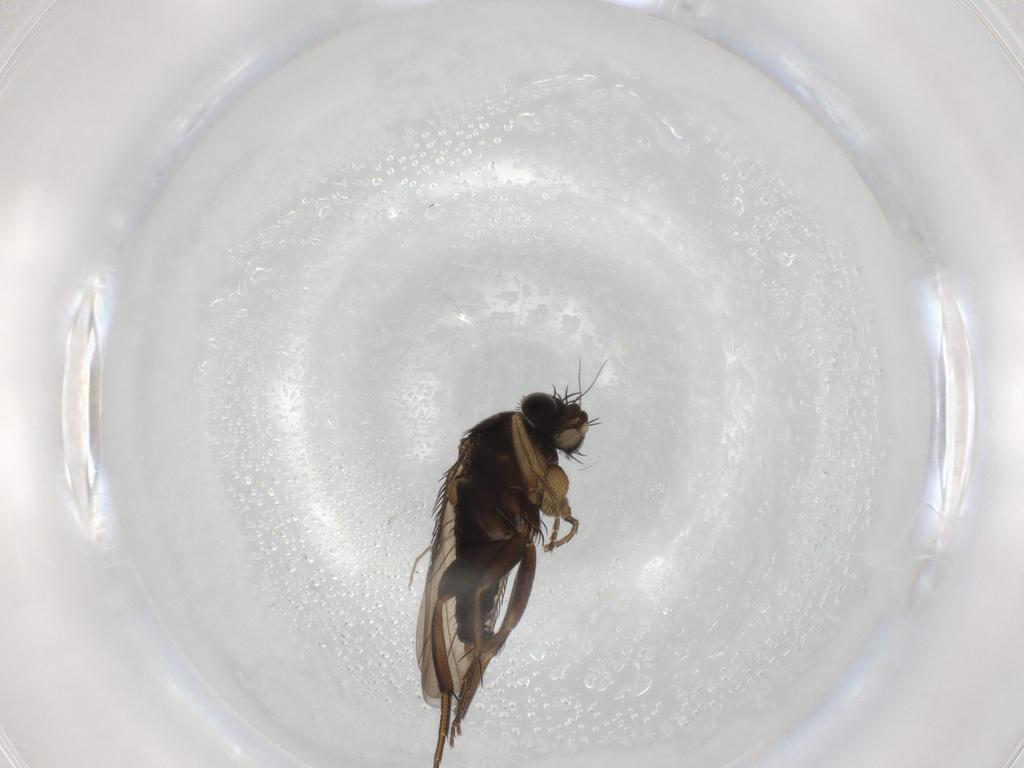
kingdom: Animalia
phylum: Arthropoda
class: Insecta
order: Diptera
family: Phoridae
